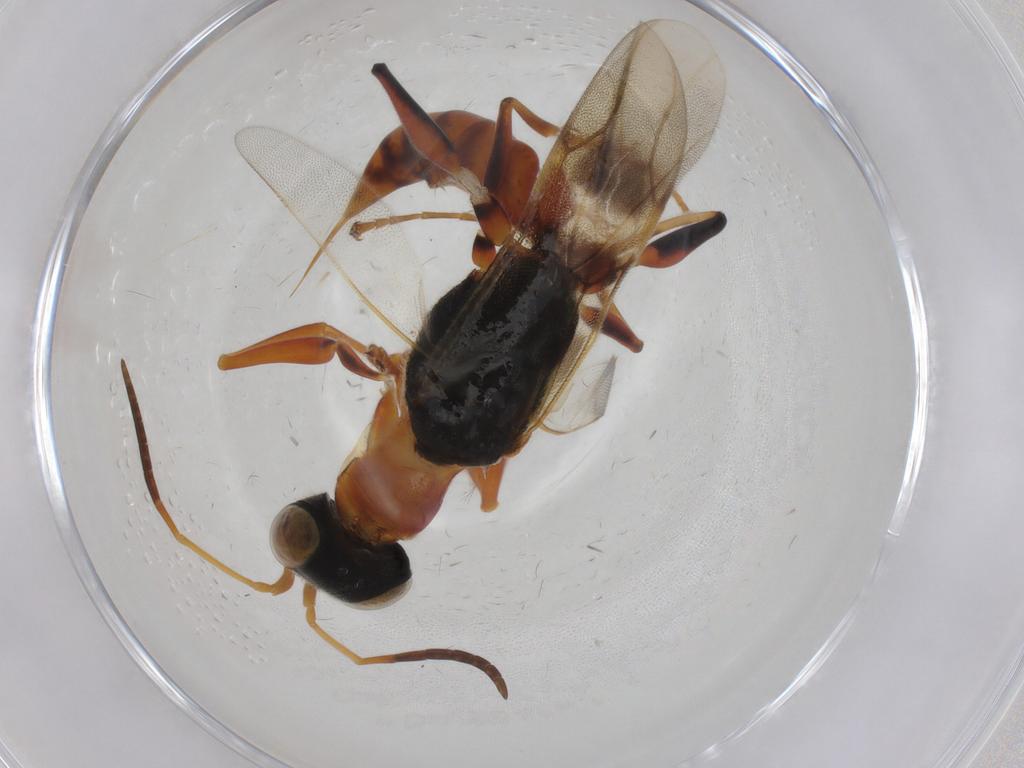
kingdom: Animalia
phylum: Arthropoda
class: Insecta
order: Hymenoptera
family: Dryinidae
